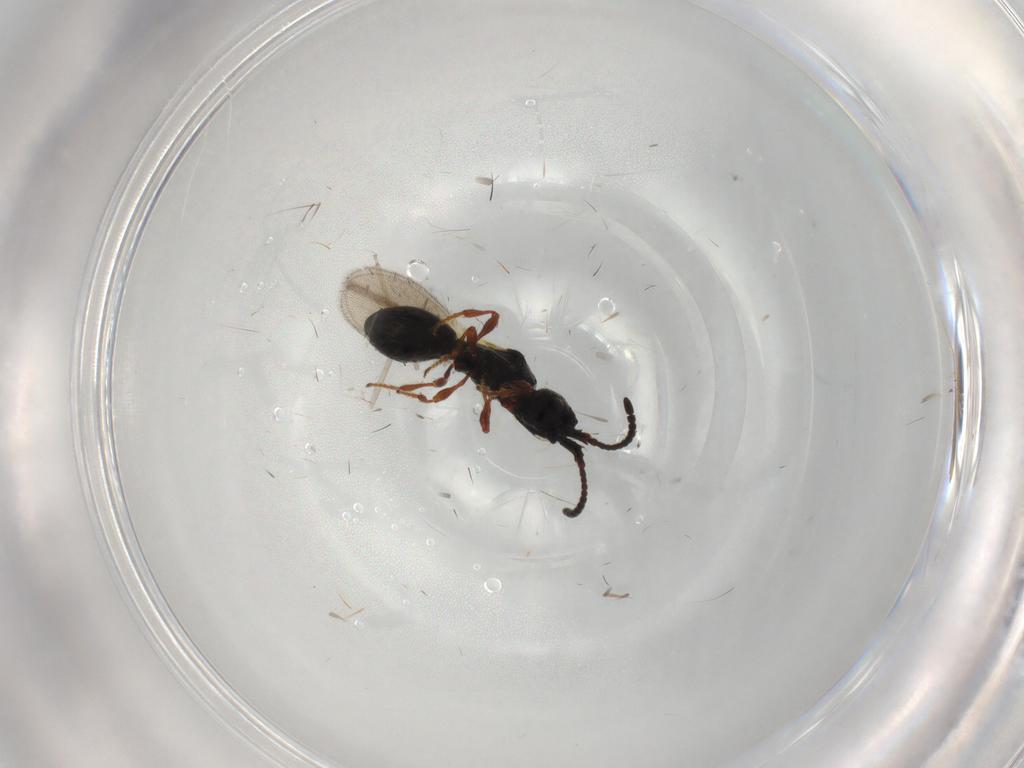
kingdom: Animalia
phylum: Arthropoda
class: Insecta
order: Hymenoptera
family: Diapriidae
